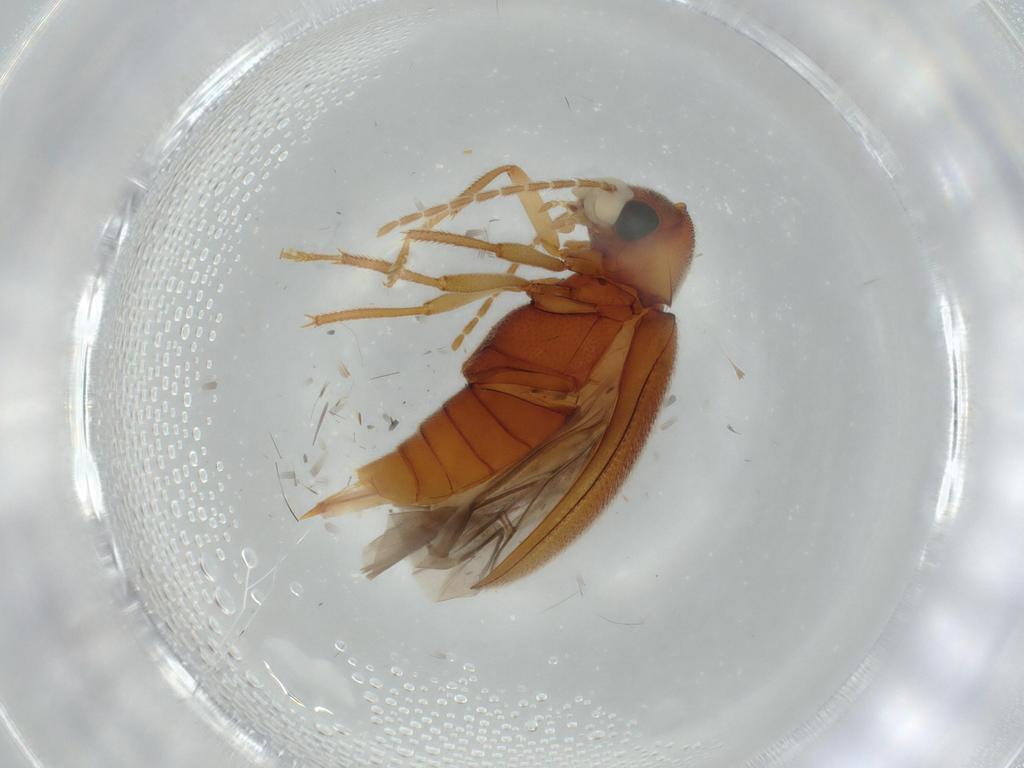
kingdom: Animalia
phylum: Arthropoda
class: Insecta
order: Coleoptera
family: Ptilodactylidae
